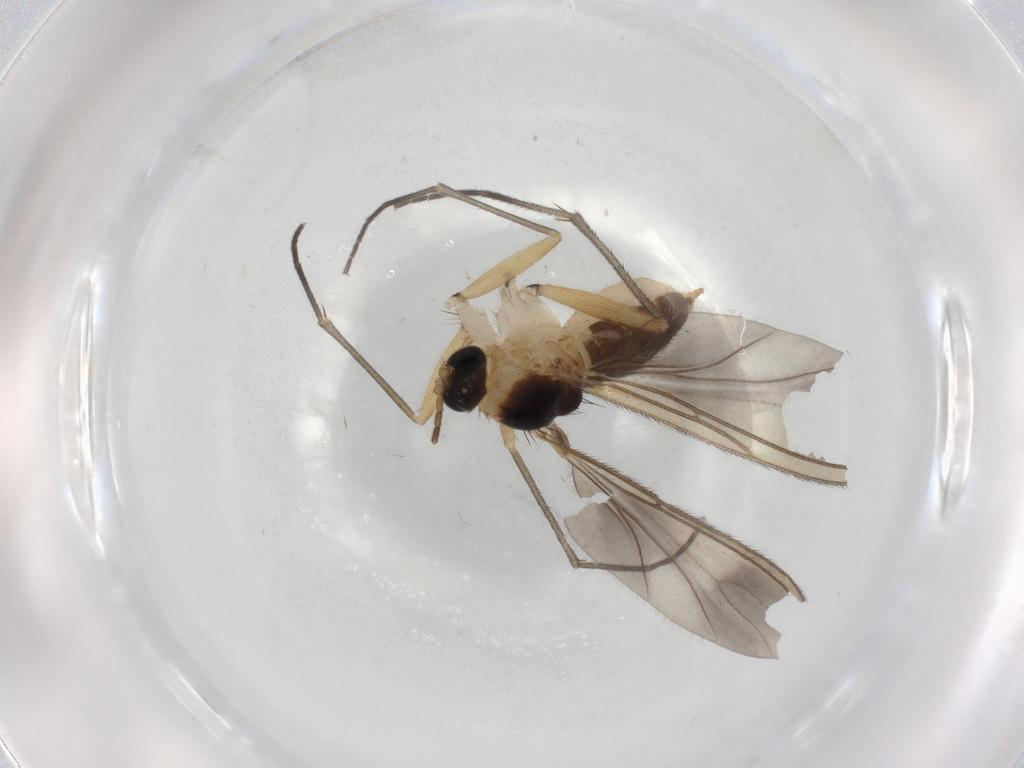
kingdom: Animalia
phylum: Arthropoda
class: Insecta
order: Diptera
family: Sciaridae
